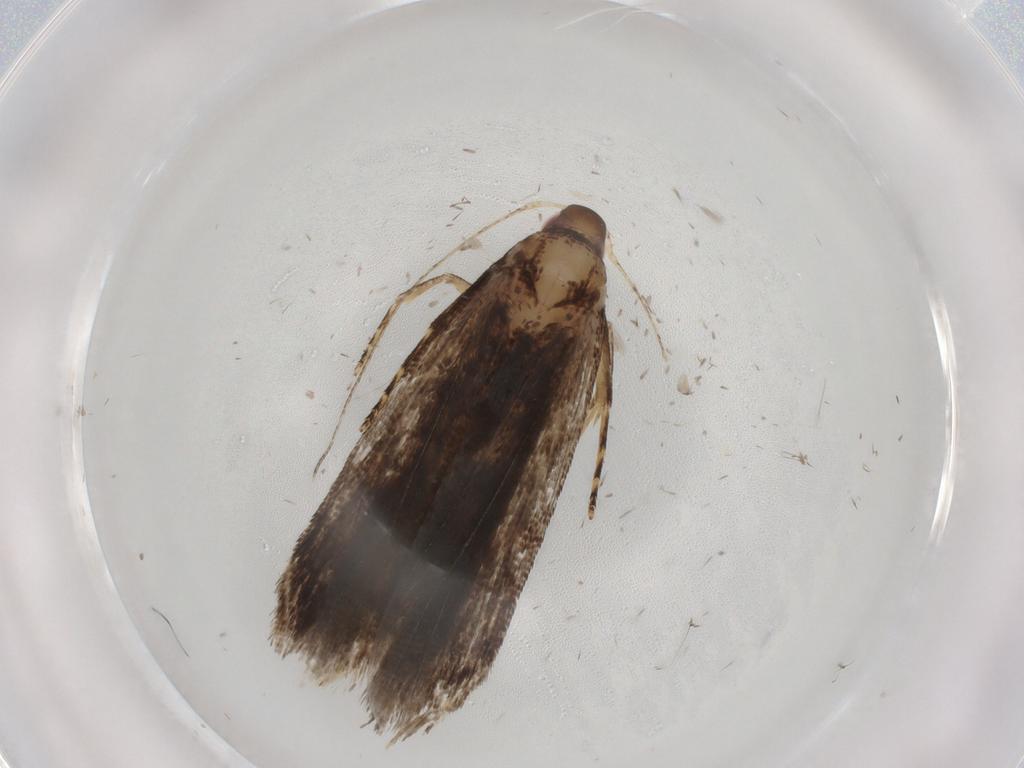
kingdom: Animalia
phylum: Arthropoda
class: Insecta
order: Lepidoptera
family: Gelechiidae
